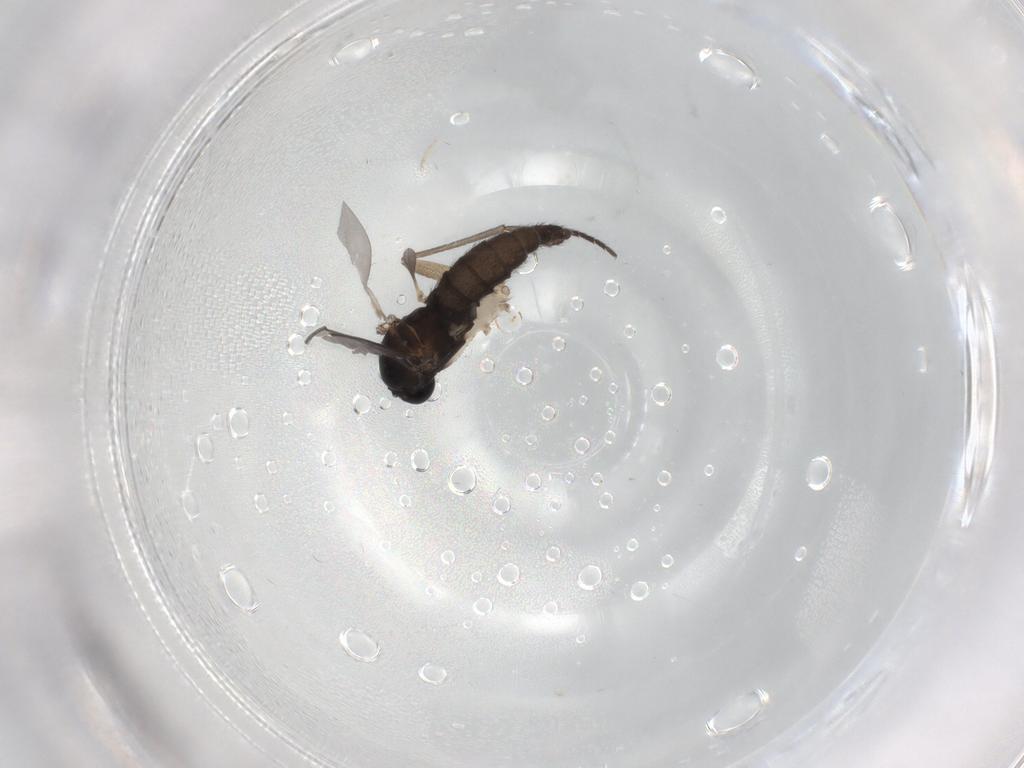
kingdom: Animalia
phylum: Arthropoda
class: Insecta
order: Diptera
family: Sciaridae
